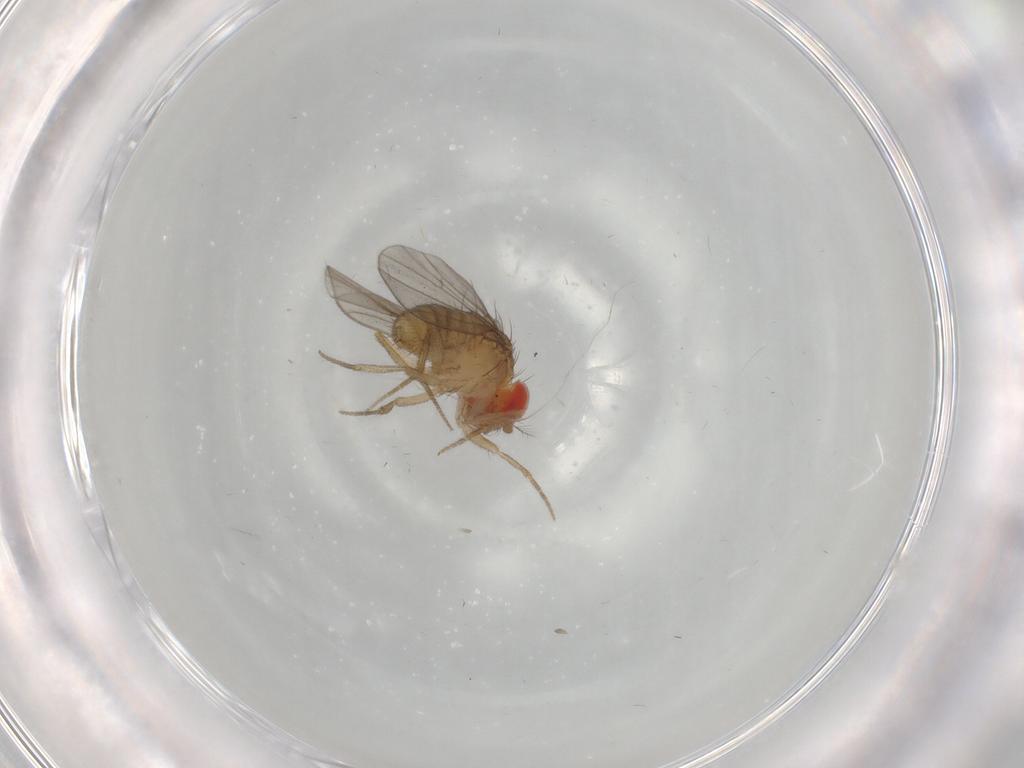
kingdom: Animalia
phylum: Arthropoda
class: Insecta
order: Diptera
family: Drosophilidae
